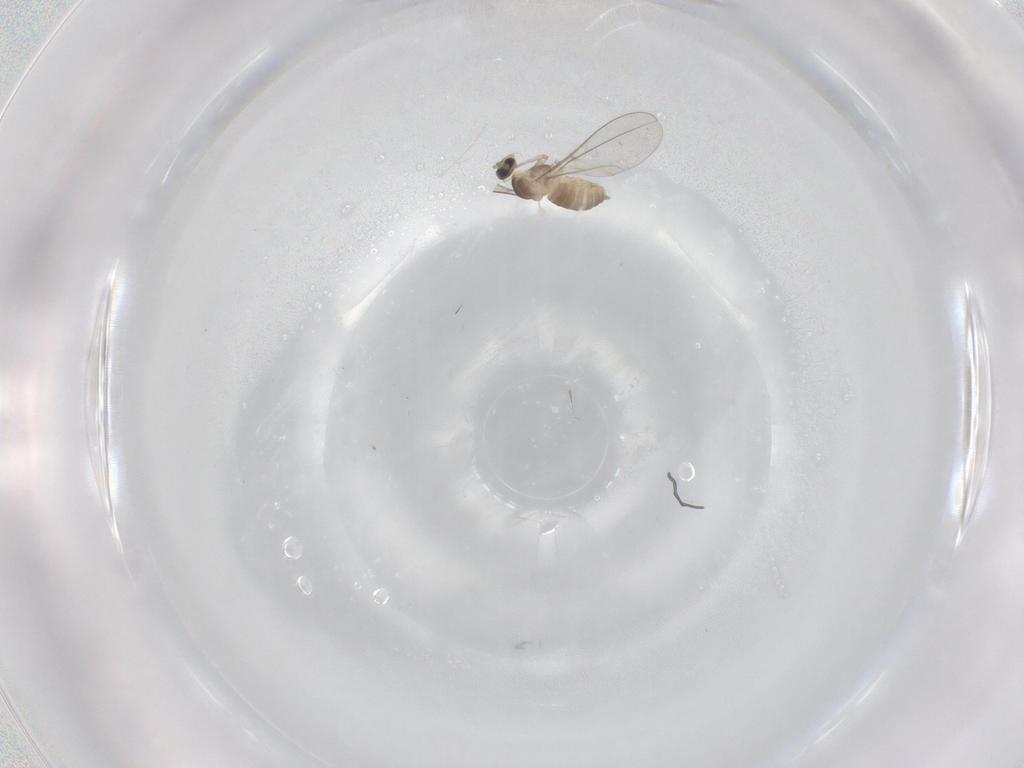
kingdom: Animalia
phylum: Arthropoda
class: Insecta
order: Diptera
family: Cecidomyiidae
